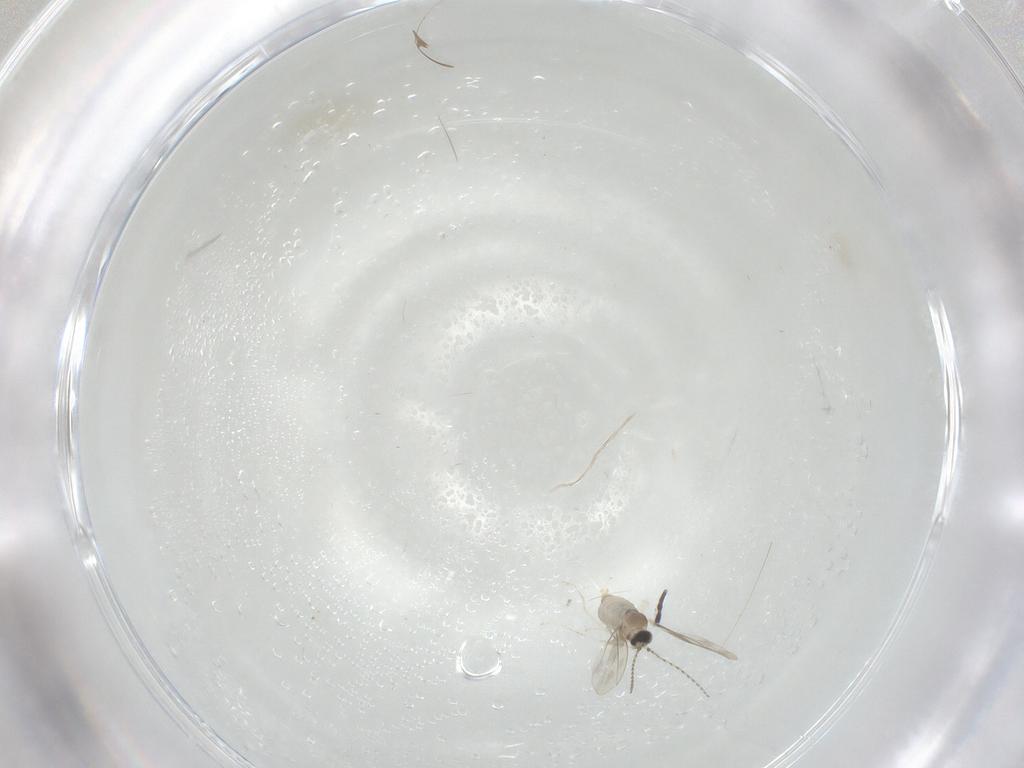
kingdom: Animalia
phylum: Arthropoda
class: Insecta
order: Diptera
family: Cecidomyiidae
